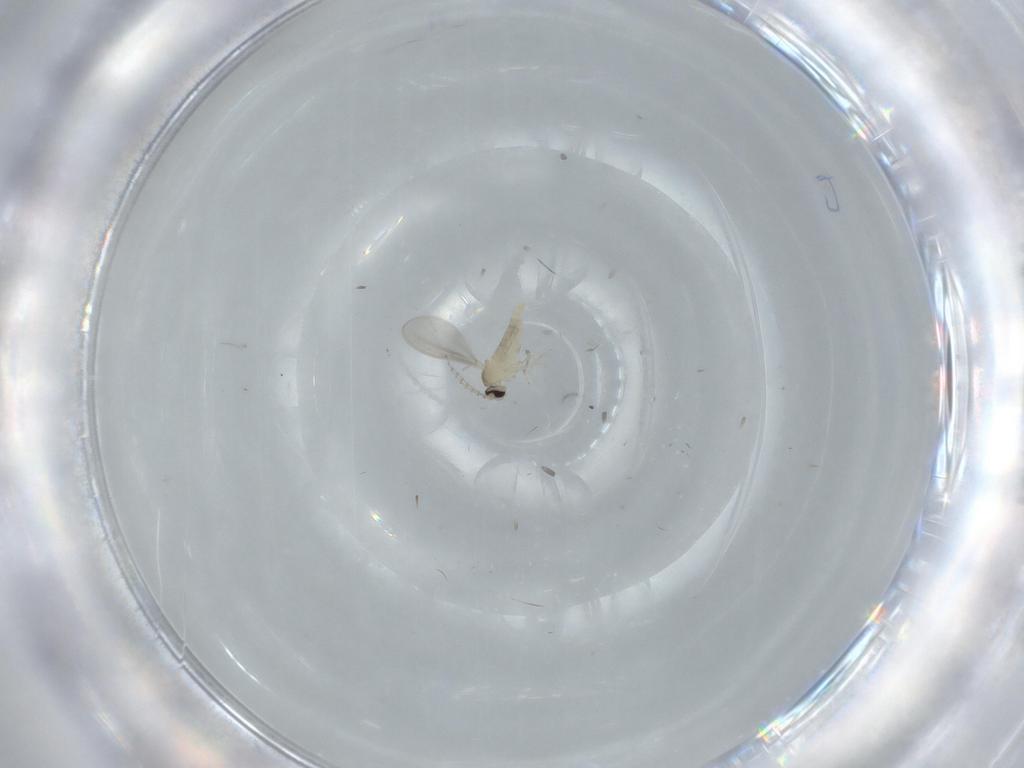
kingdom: Animalia
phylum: Arthropoda
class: Insecta
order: Diptera
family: Cecidomyiidae
